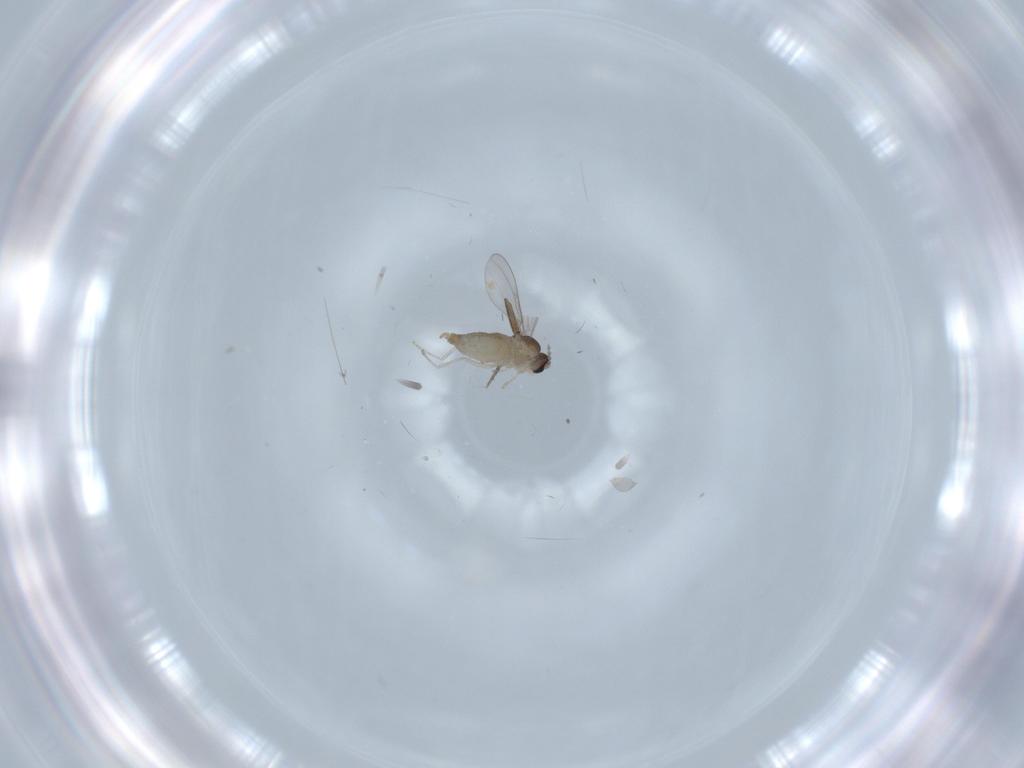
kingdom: Animalia
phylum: Arthropoda
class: Insecta
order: Diptera
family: Cecidomyiidae
